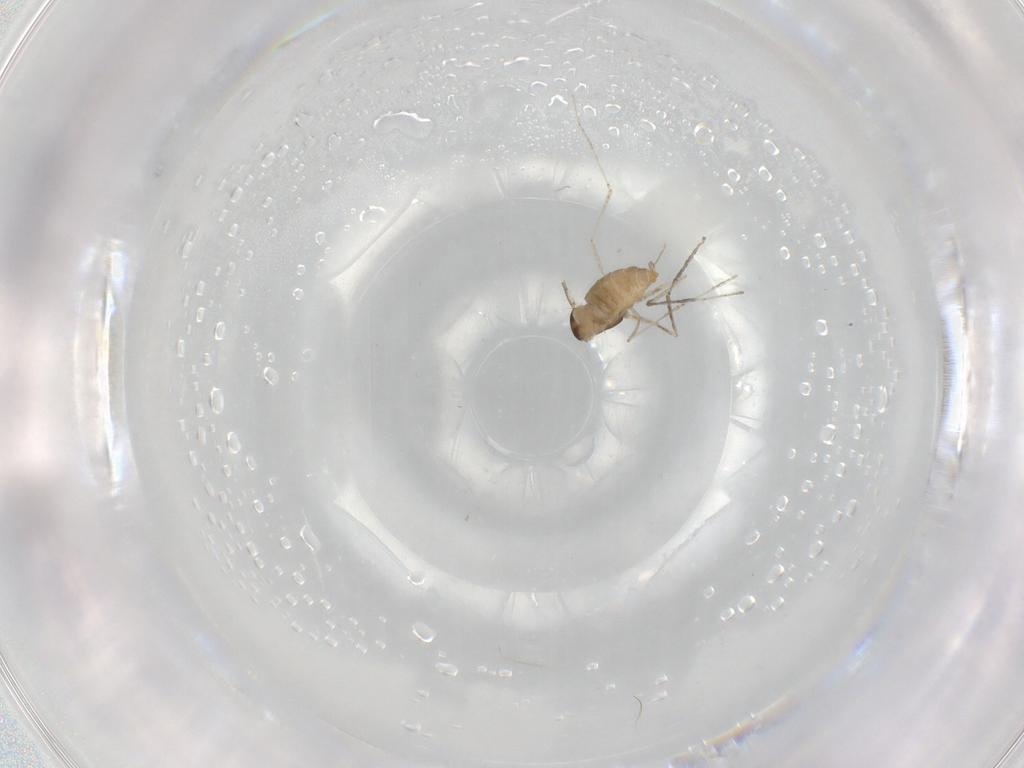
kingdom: Animalia
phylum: Arthropoda
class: Insecta
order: Diptera
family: Cecidomyiidae
